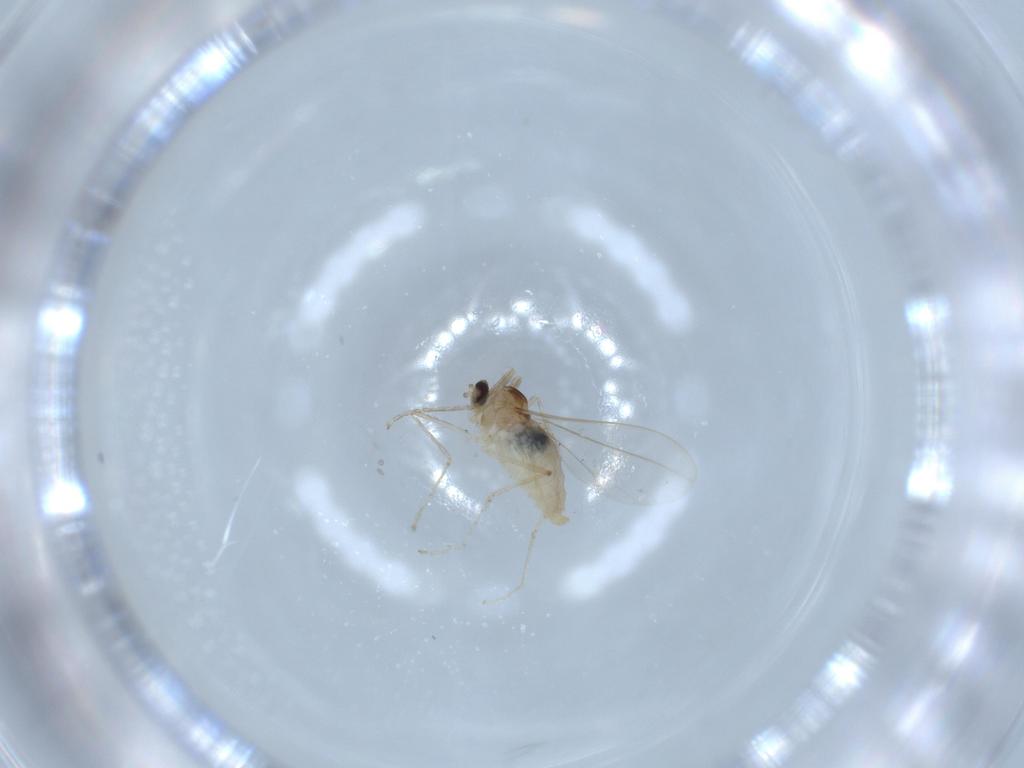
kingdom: Animalia
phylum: Arthropoda
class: Insecta
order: Diptera
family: Cecidomyiidae
